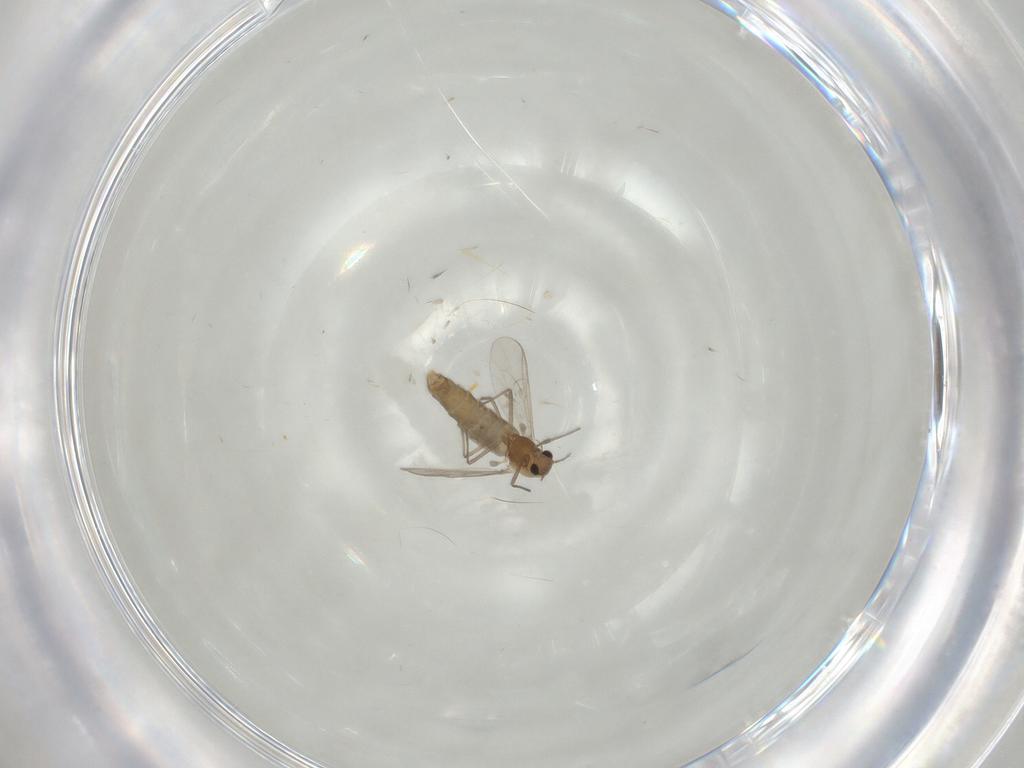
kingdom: Animalia
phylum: Arthropoda
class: Insecta
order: Diptera
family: Chironomidae
